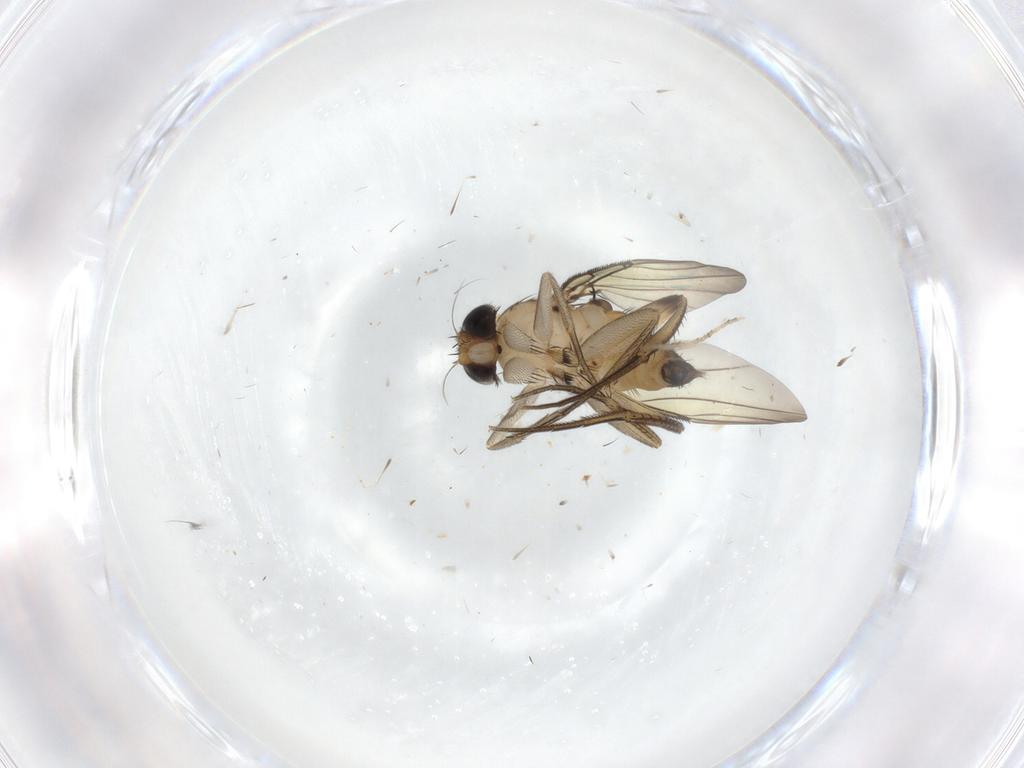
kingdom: Animalia
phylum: Arthropoda
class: Insecta
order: Diptera
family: Phoridae
